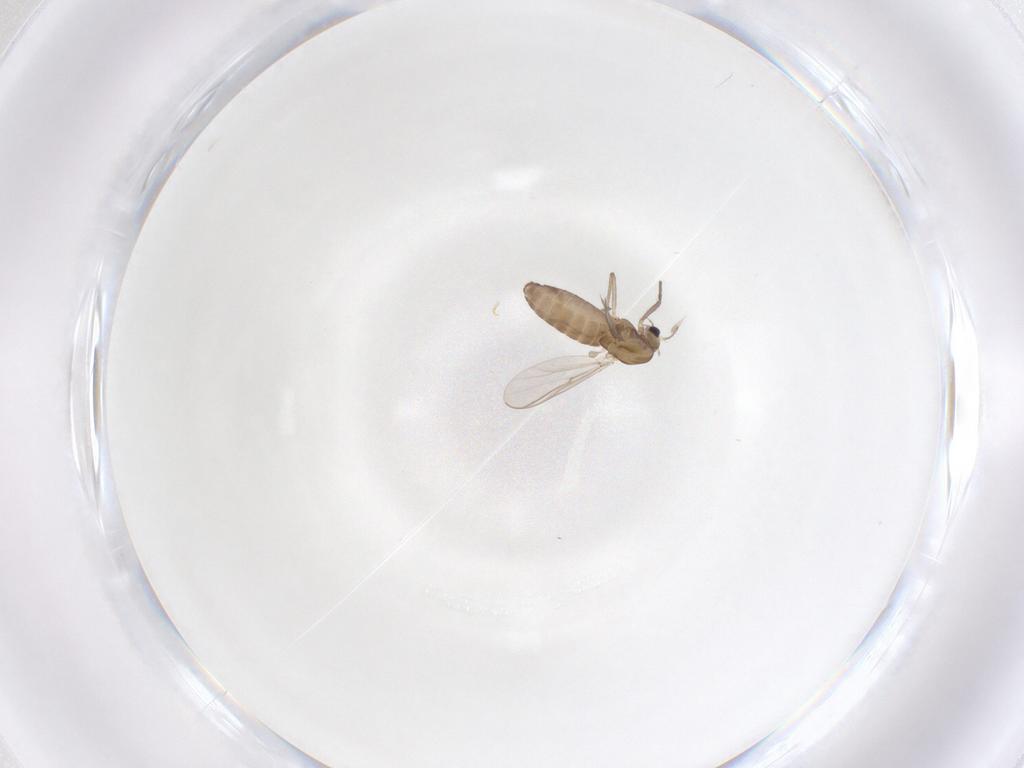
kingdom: Animalia
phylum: Arthropoda
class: Insecta
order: Diptera
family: Chironomidae
